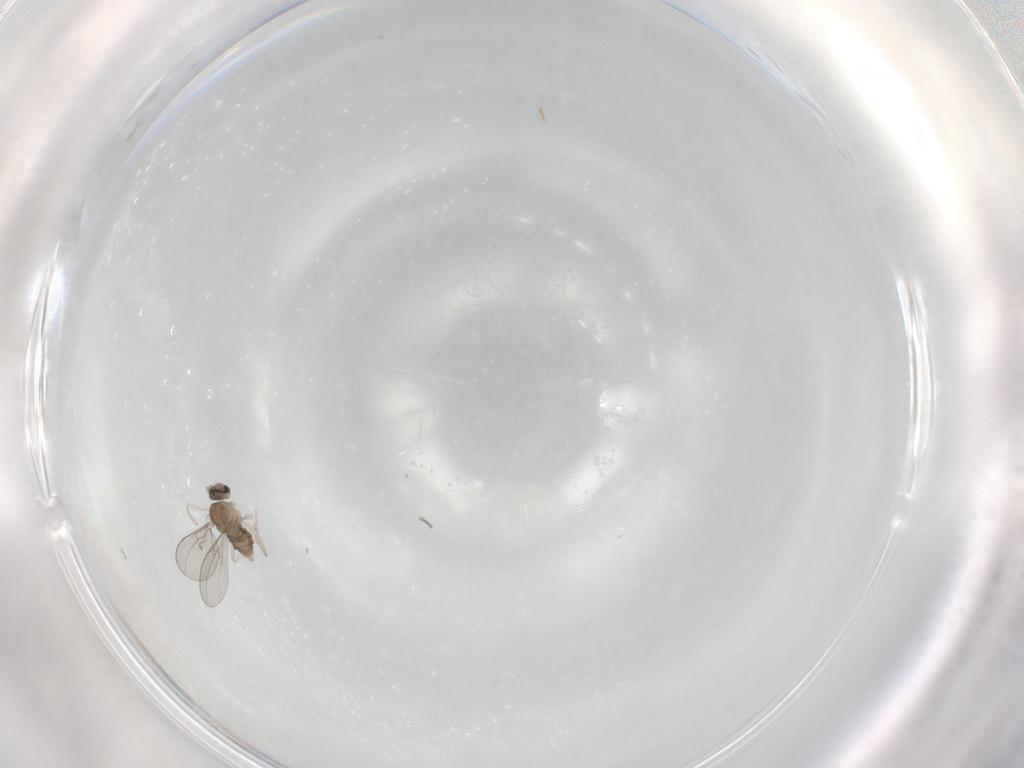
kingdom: Animalia
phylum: Arthropoda
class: Insecta
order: Diptera
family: Cecidomyiidae
